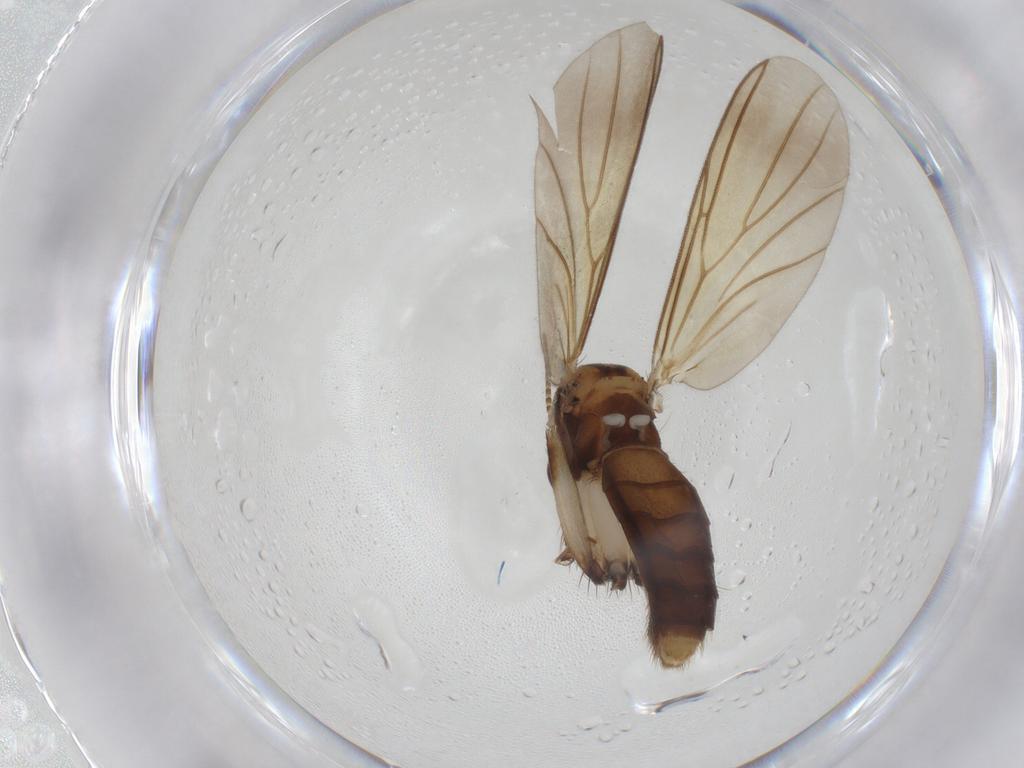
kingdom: Animalia
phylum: Arthropoda
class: Insecta
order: Diptera
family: Mycetophilidae
